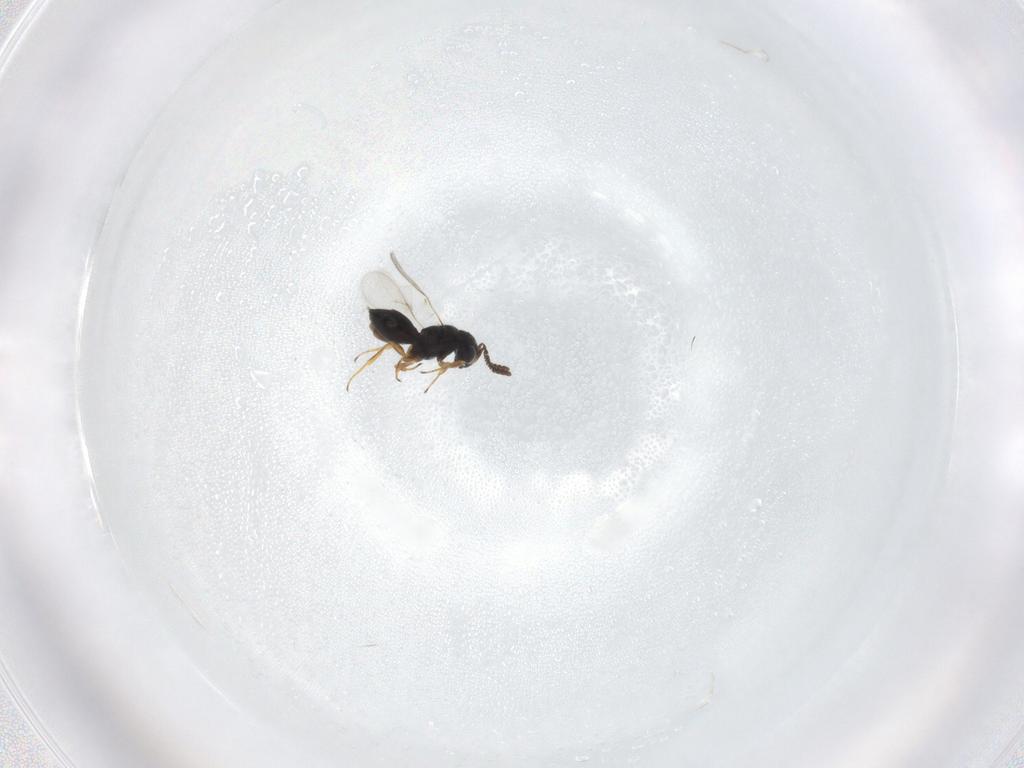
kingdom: Animalia
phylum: Arthropoda
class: Insecta
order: Hymenoptera
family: Scelionidae
